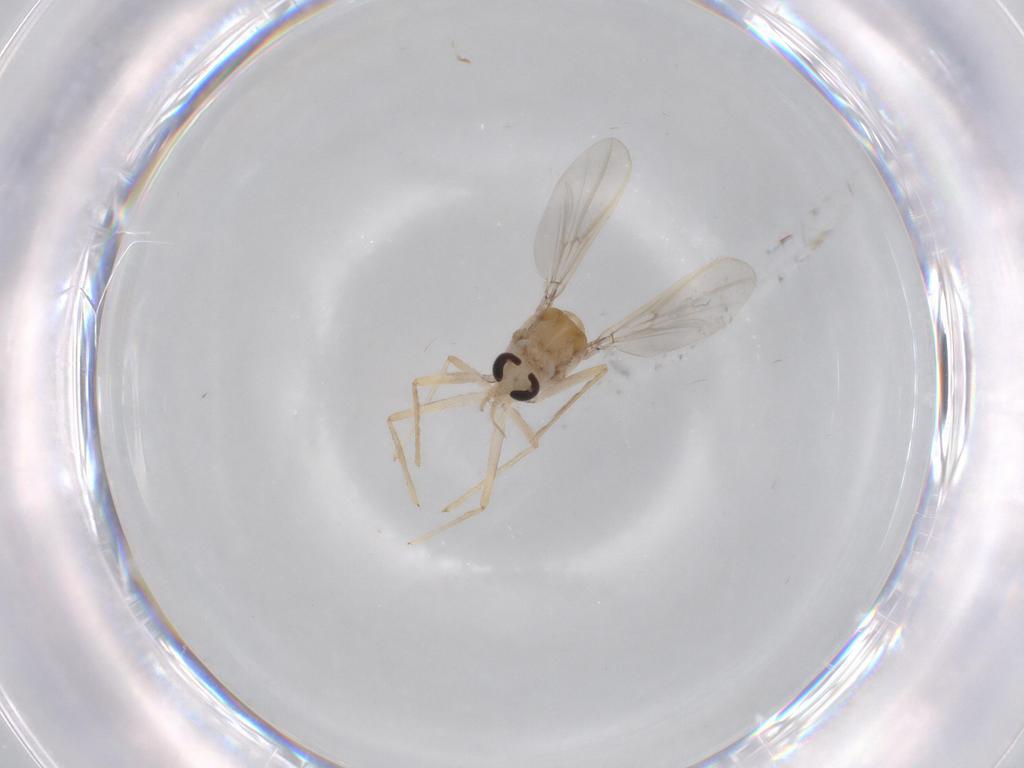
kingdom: Animalia
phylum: Arthropoda
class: Insecta
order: Diptera
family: Chironomidae
